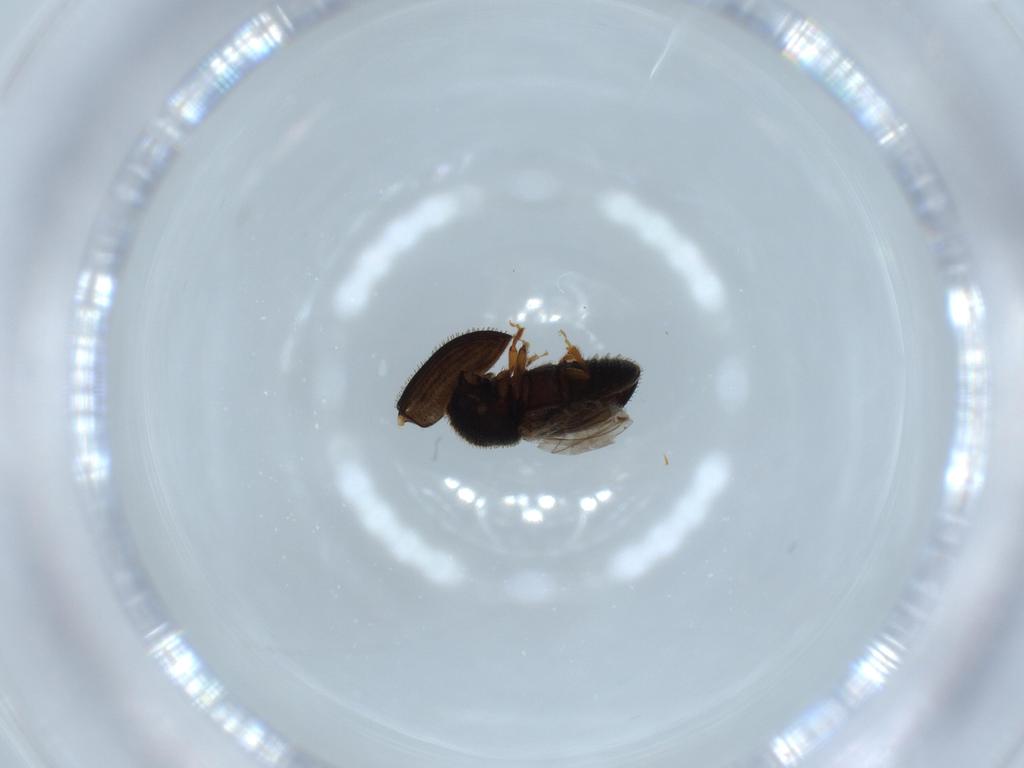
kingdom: Animalia
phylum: Arthropoda
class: Insecta
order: Coleoptera
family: Curculionidae
